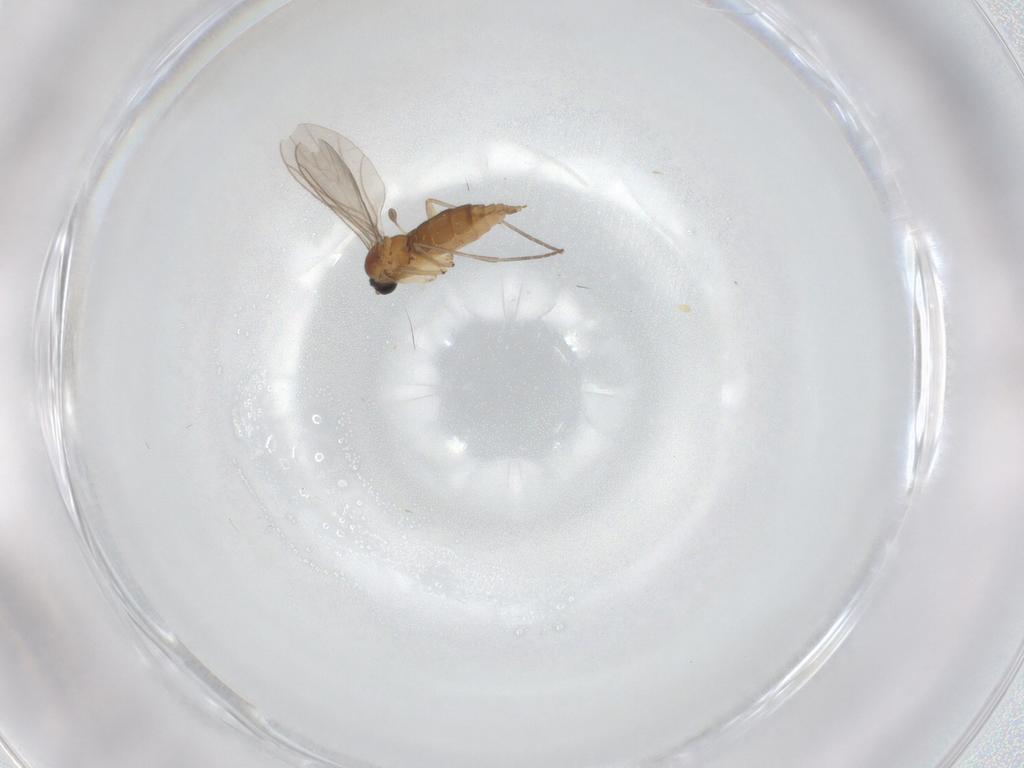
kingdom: Animalia
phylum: Arthropoda
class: Insecta
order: Diptera
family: Sciaridae
